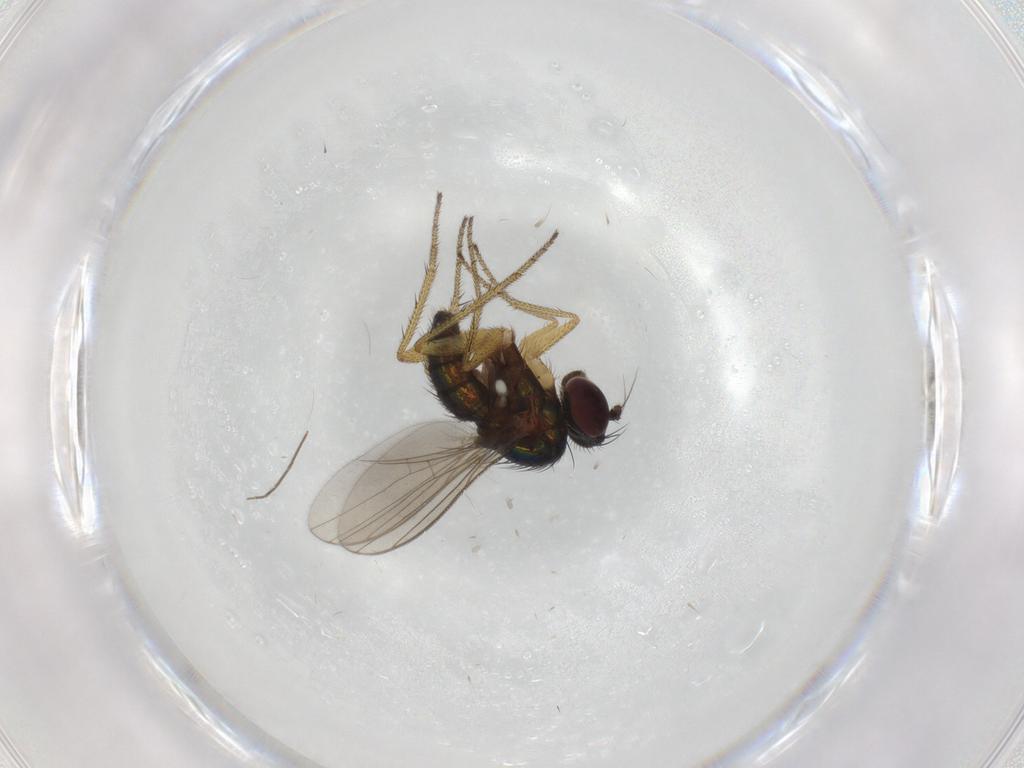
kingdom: Animalia
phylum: Arthropoda
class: Insecta
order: Diptera
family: Dolichopodidae
